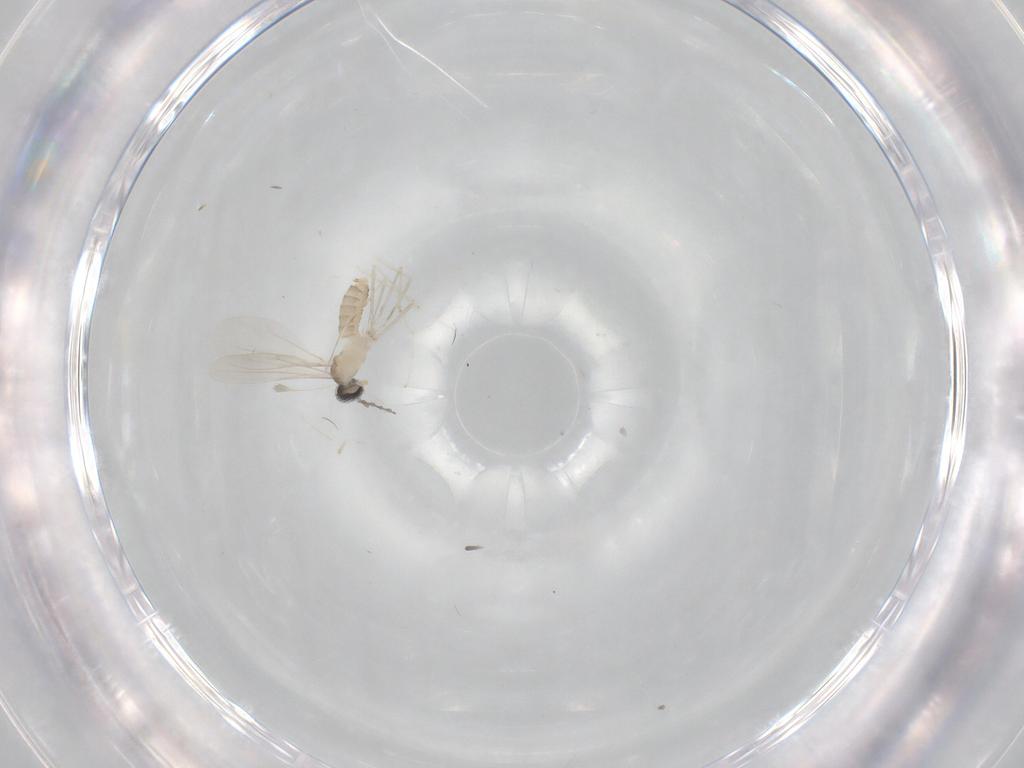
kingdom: Animalia
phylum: Arthropoda
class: Insecta
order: Diptera
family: Cecidomyiidae
